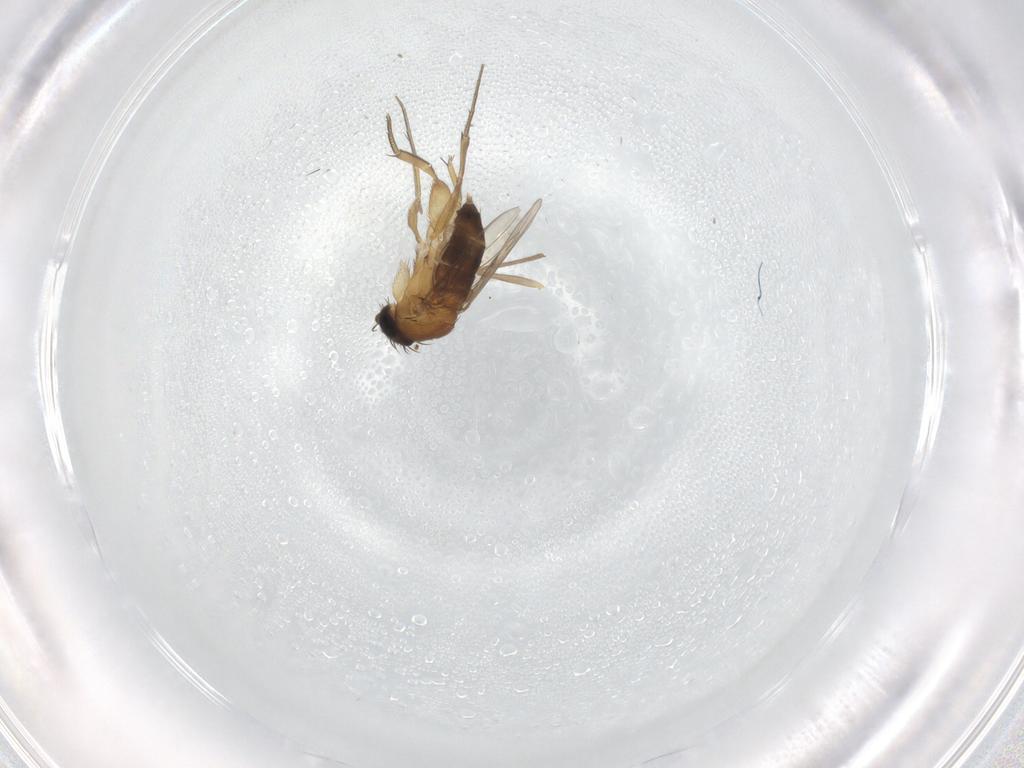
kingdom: Animalia
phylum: Arthropoda
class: Insecta
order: Diptera
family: Phoridae
